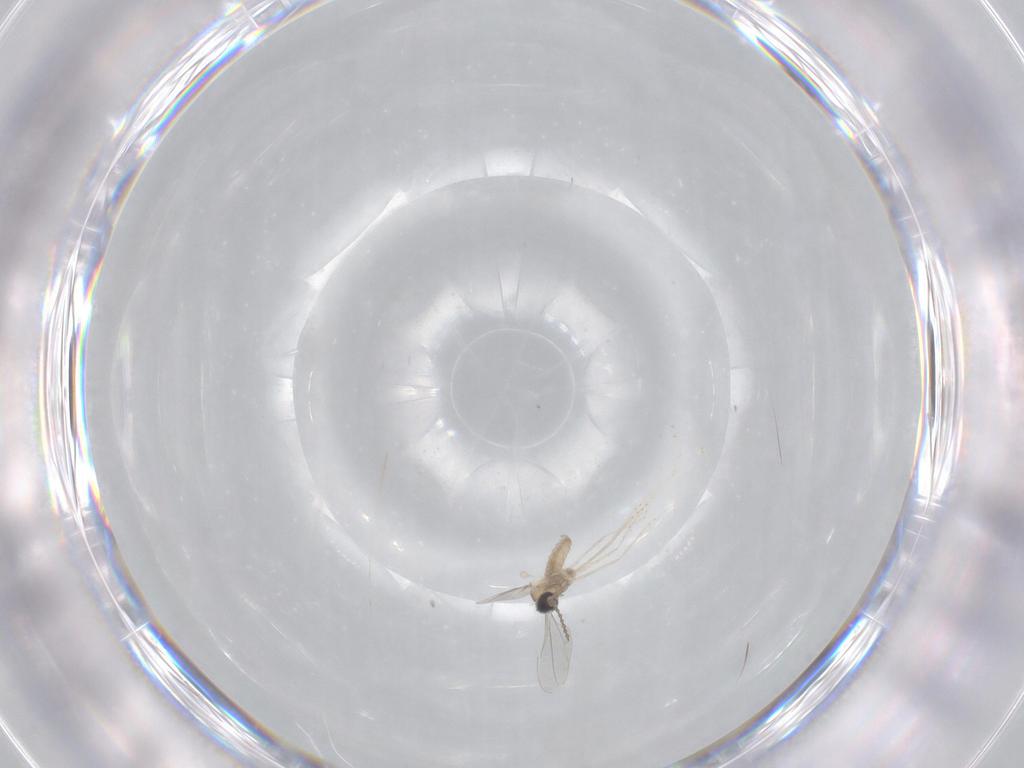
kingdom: Animalia
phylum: Arthropoda
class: Insecta
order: Diptera
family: Cecidomyiidae
